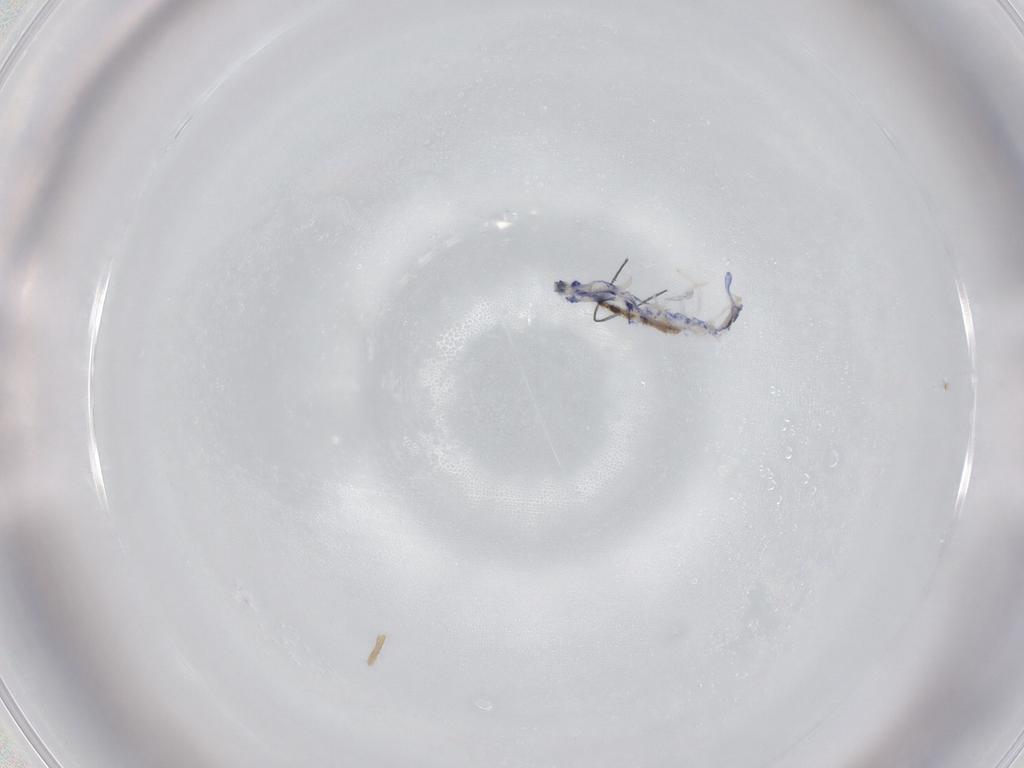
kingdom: Animalia
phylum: Arthropoda
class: Collembola
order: Entomobryomorpha
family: Entomobryidae
